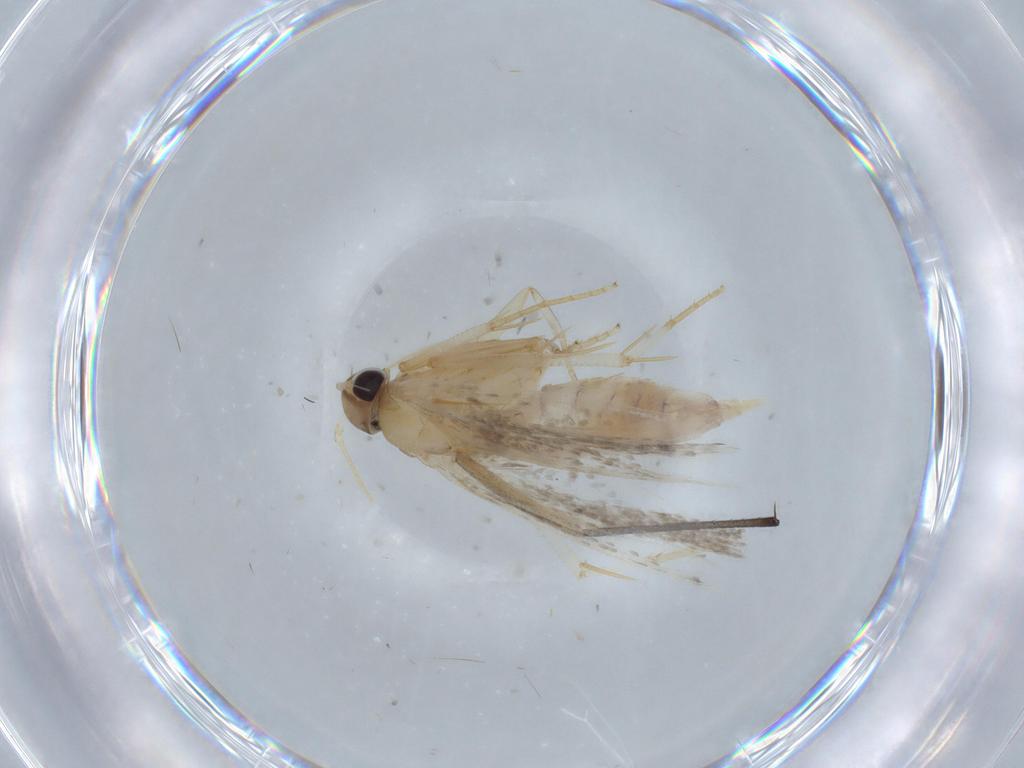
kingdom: Animalia
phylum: Arthropoda
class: Insecta
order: Lepidoptera
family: Gelechiidae
